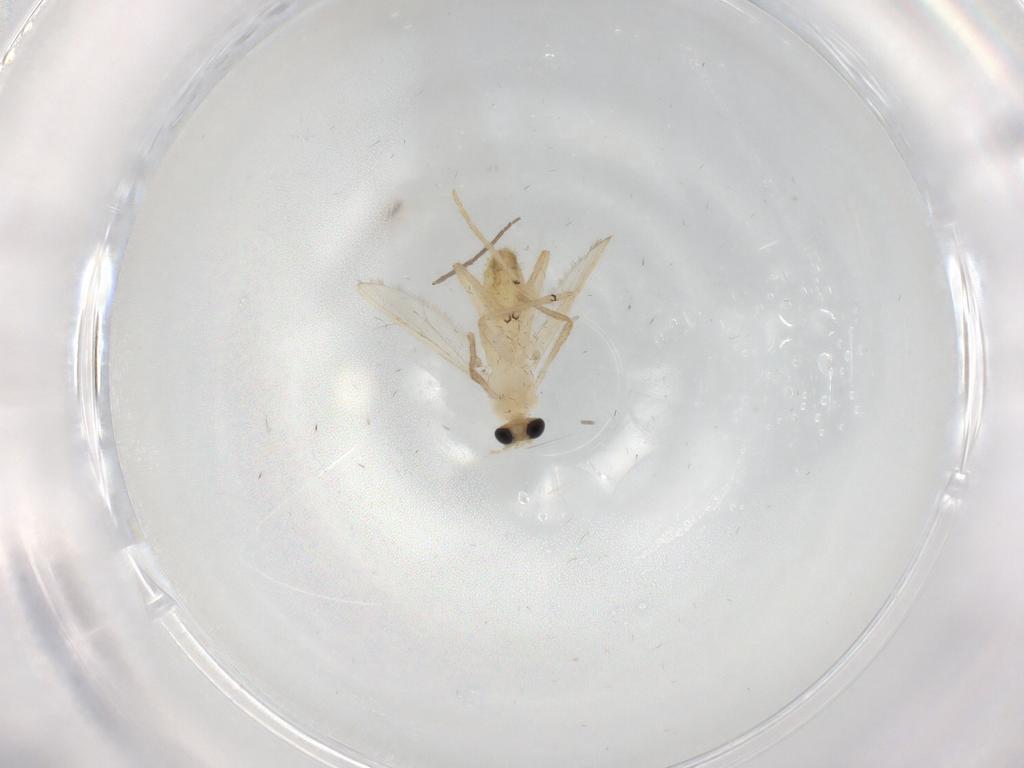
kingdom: Animalia
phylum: Arthropoda
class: Insecta
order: Diptera
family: Chironomidae
